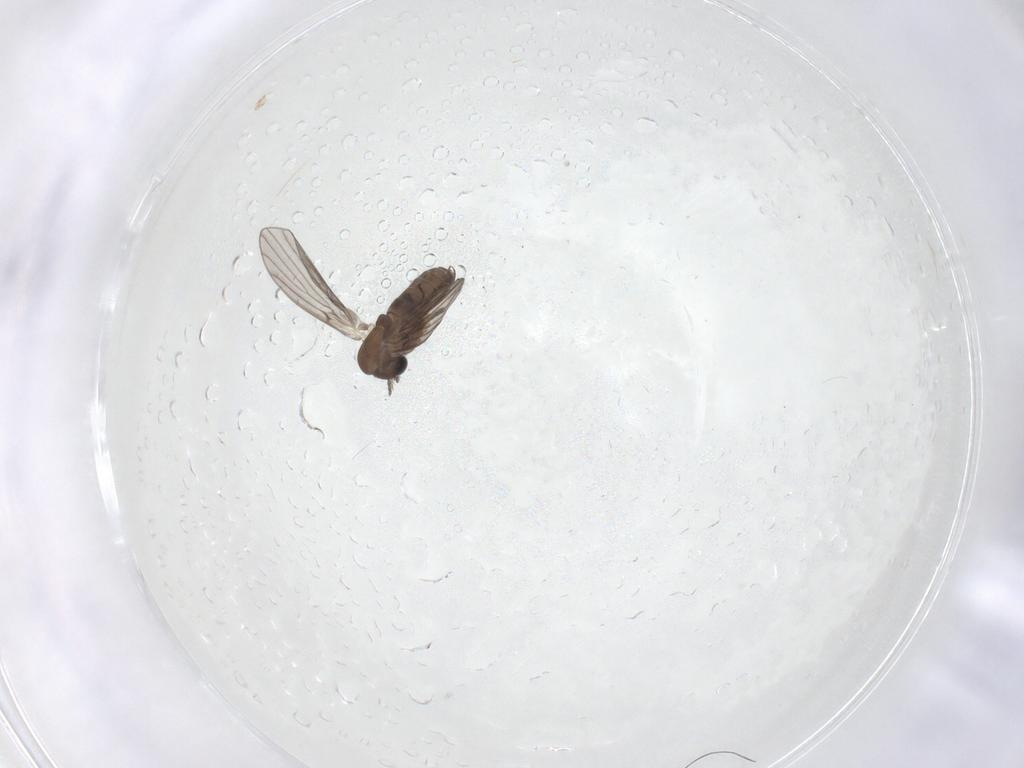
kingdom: Animalia
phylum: Arthropoda
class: Insecta
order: Diptera
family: Psychodidae
